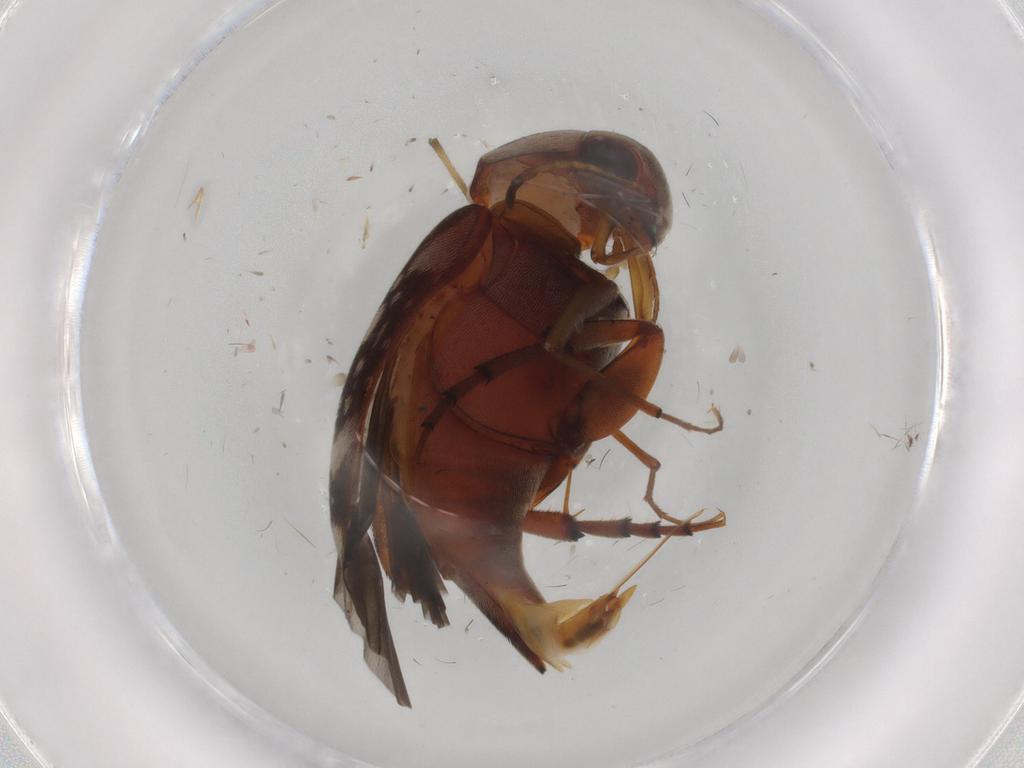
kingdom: Animalia
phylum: Arthropoda
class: Insecta
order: Coleoptera
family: Mordellidae
